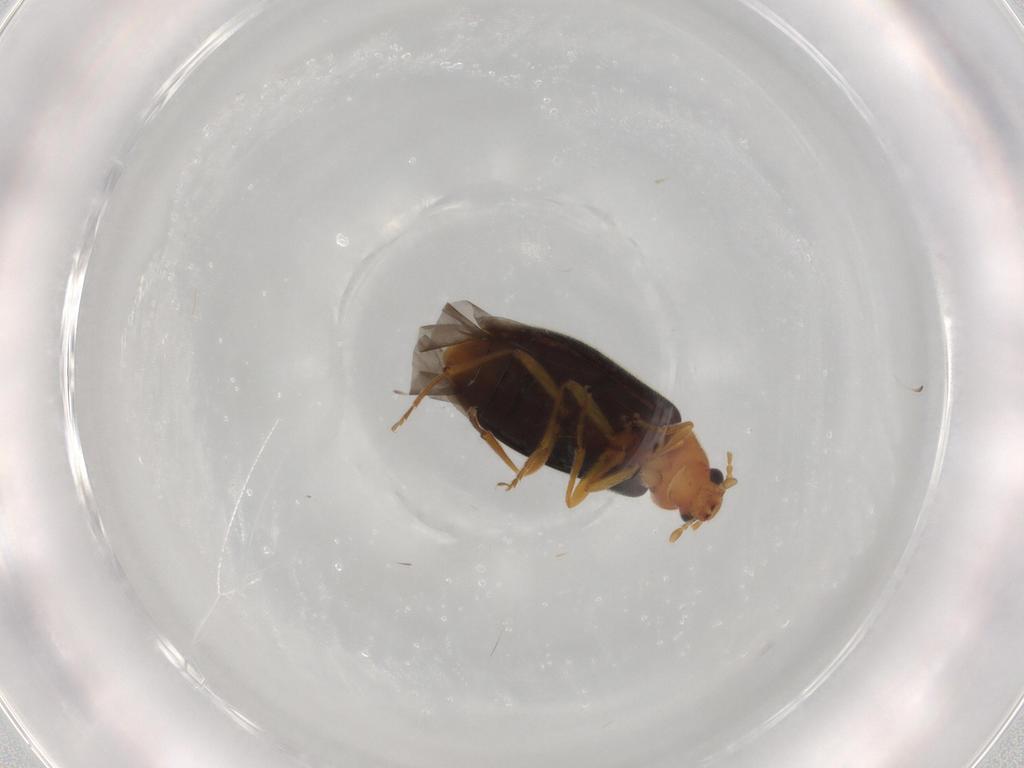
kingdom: Animalia
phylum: Arthropoda
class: Insecta
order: Coleoptera
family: Melandryidae
